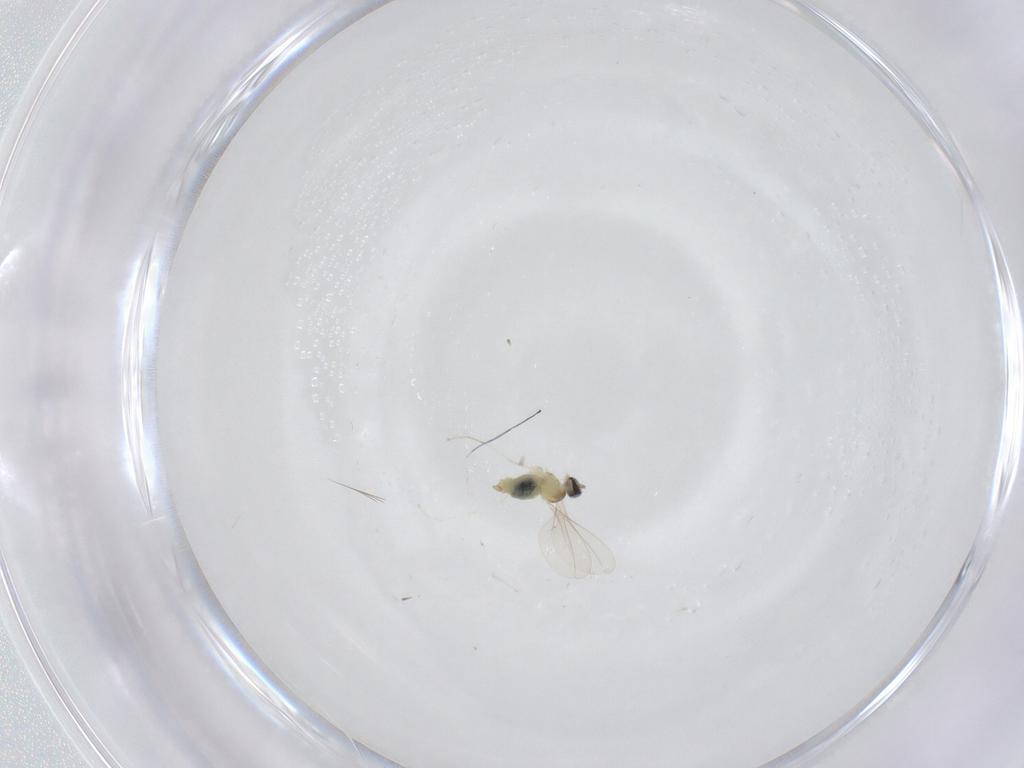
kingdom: Animalia
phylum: Arthropoda
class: Insecta
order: Diptera
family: Cecidomyiidae
